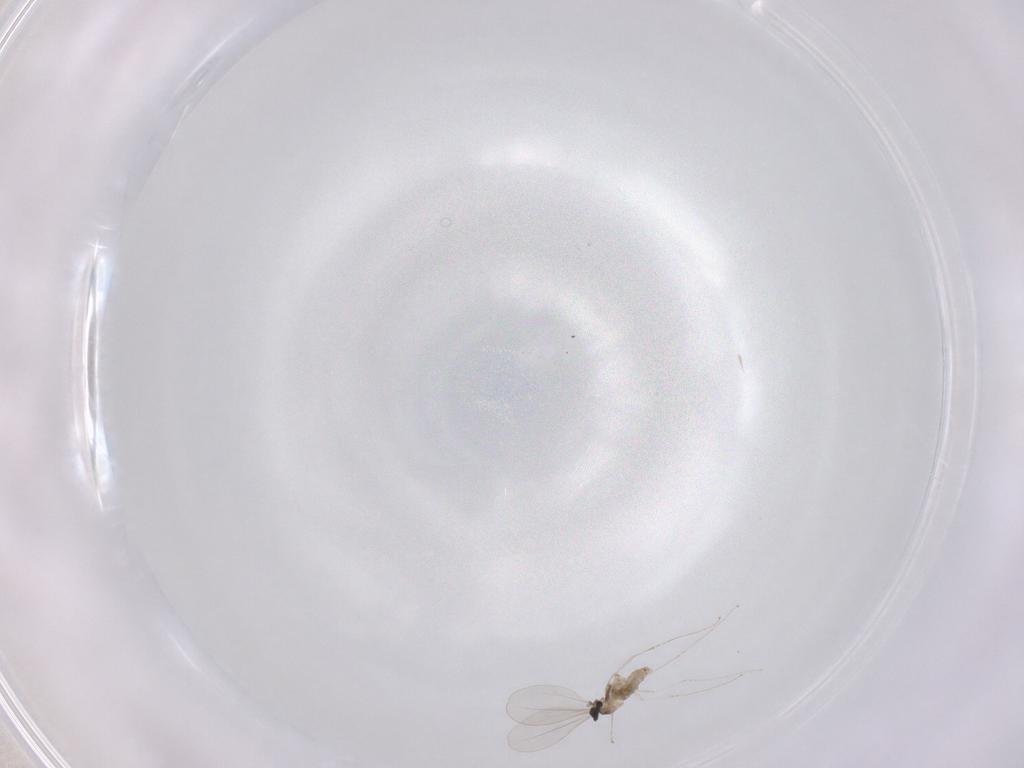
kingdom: Animalia
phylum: Arthropoda
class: Insecta
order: Diptera
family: Cecidomyiidae
